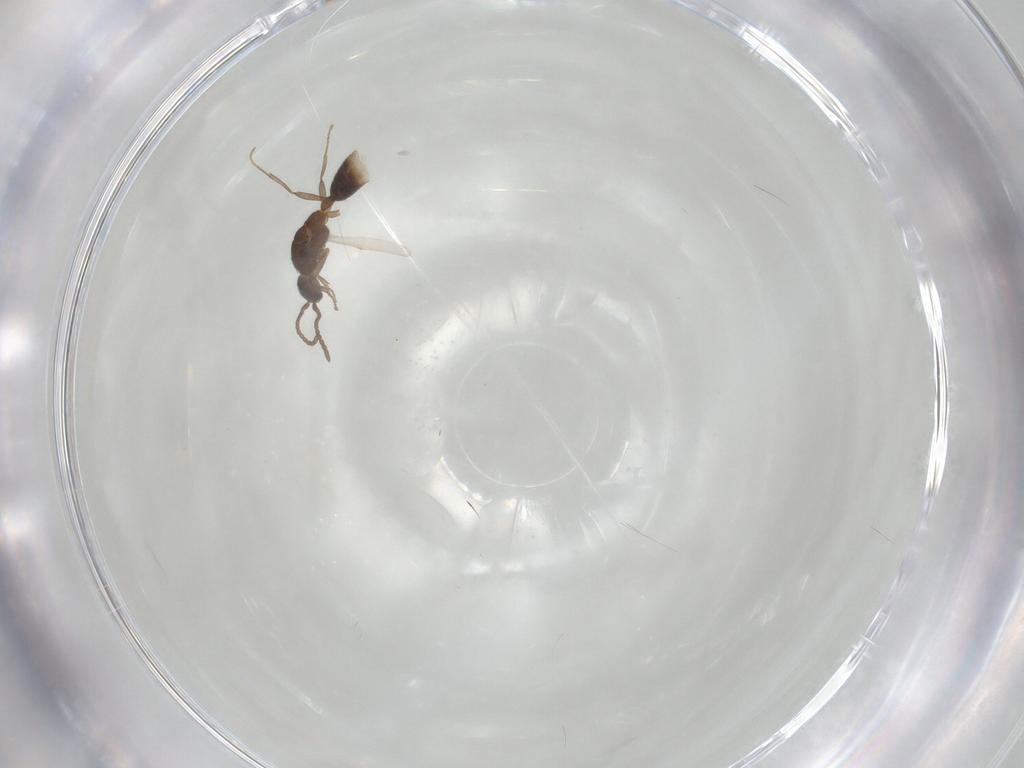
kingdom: Animalia
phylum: Arthropoda
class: Insecta
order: Hymenoptera
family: Formicidae
